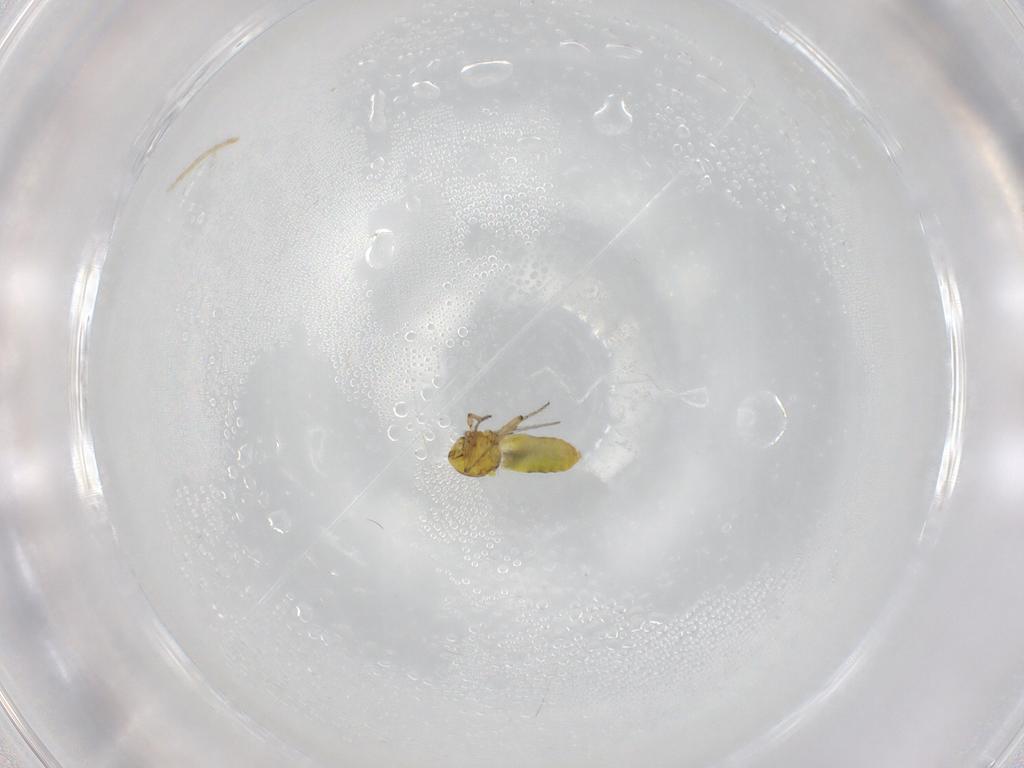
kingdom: Animalia
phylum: Arthropoda
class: Insecta
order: Diptera
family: Ceratopogonidae
